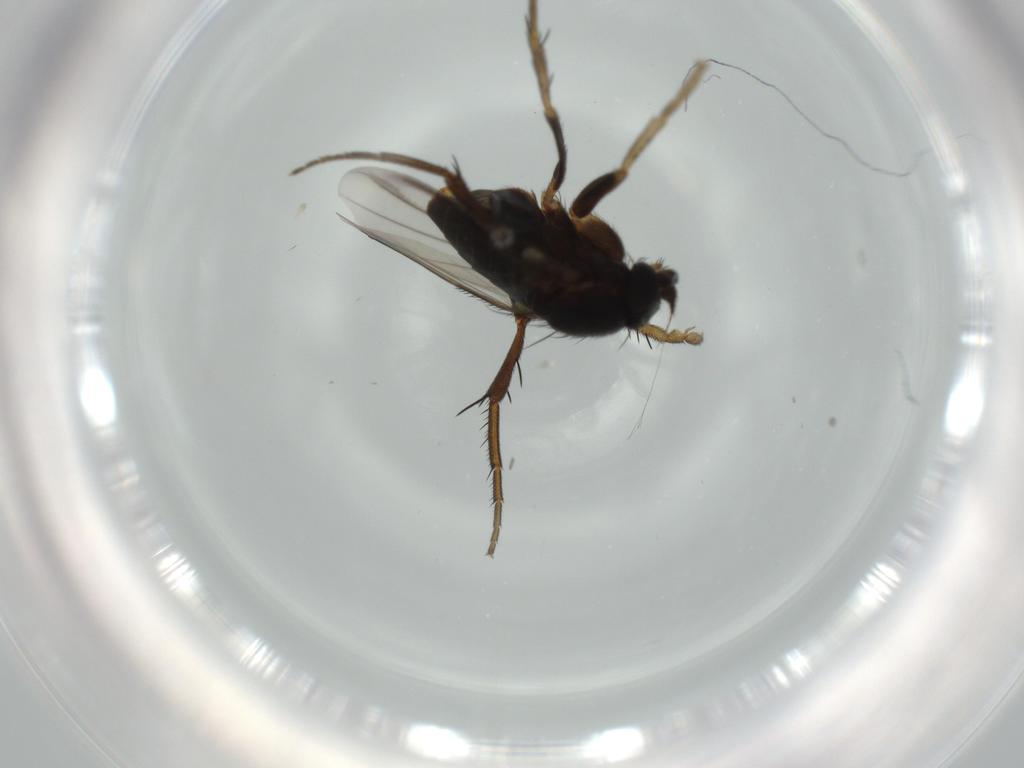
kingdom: Animalia
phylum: Arthropoda
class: Insecta
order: Diptera
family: Phoridae
